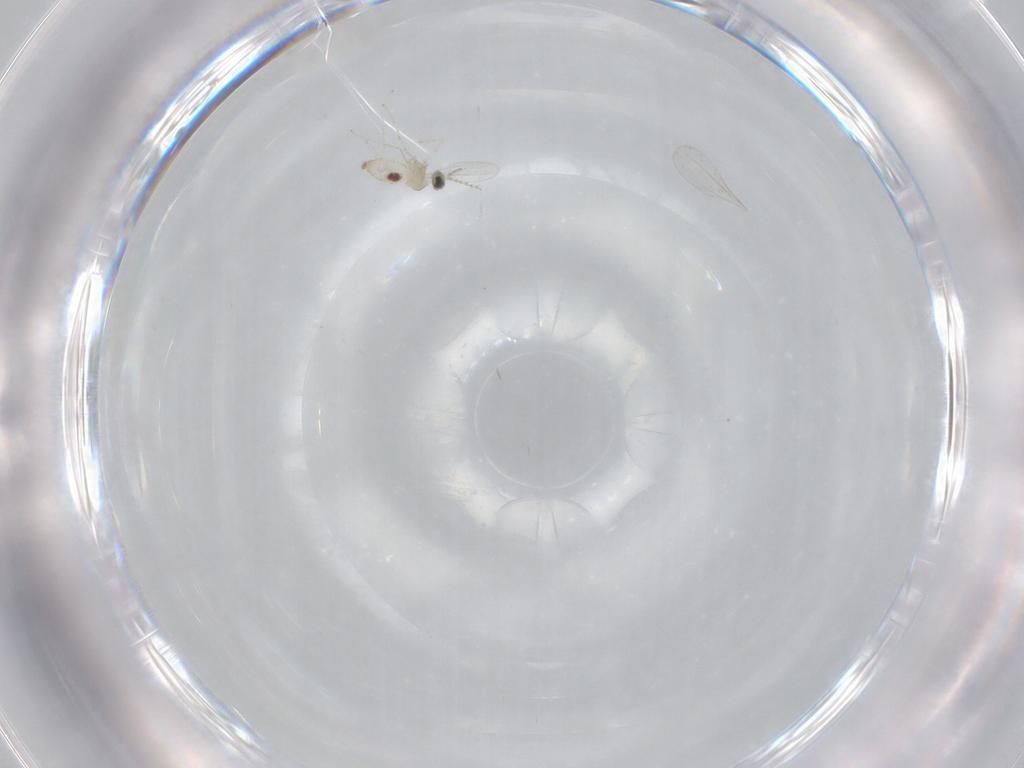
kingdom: Animalia
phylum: Arthropoda
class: Insecta
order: Diptera
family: Cecidomyiidae
